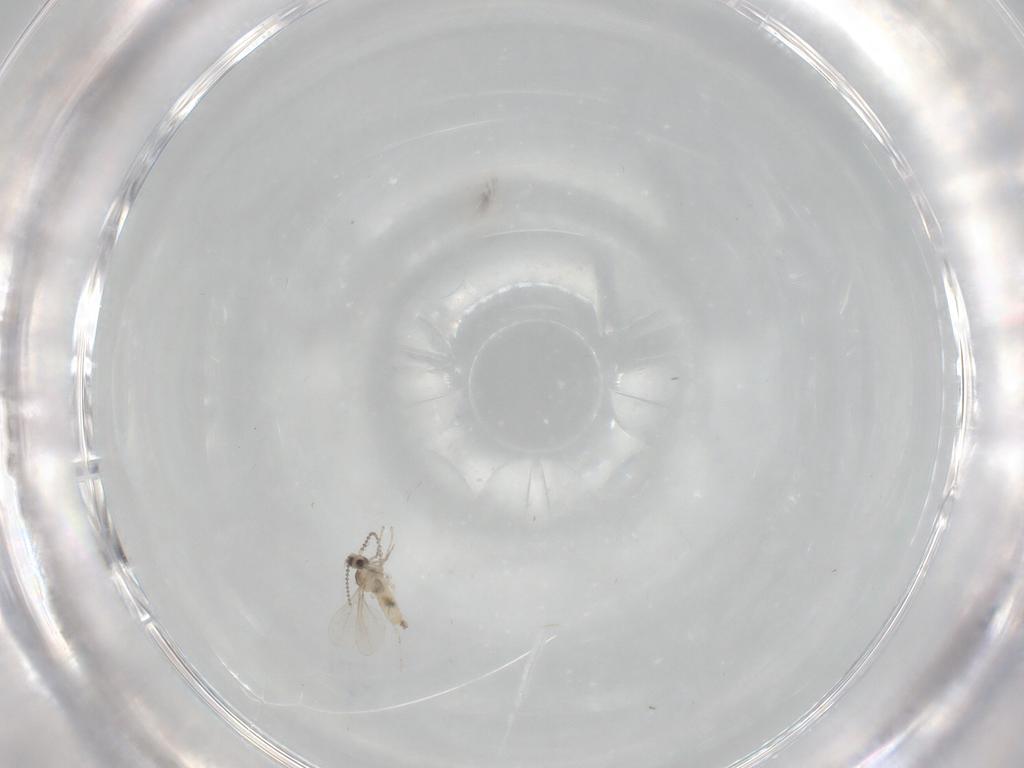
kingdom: Animalia
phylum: Arthropoda
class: Insecta
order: Diptera
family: Cecidomyiidae
